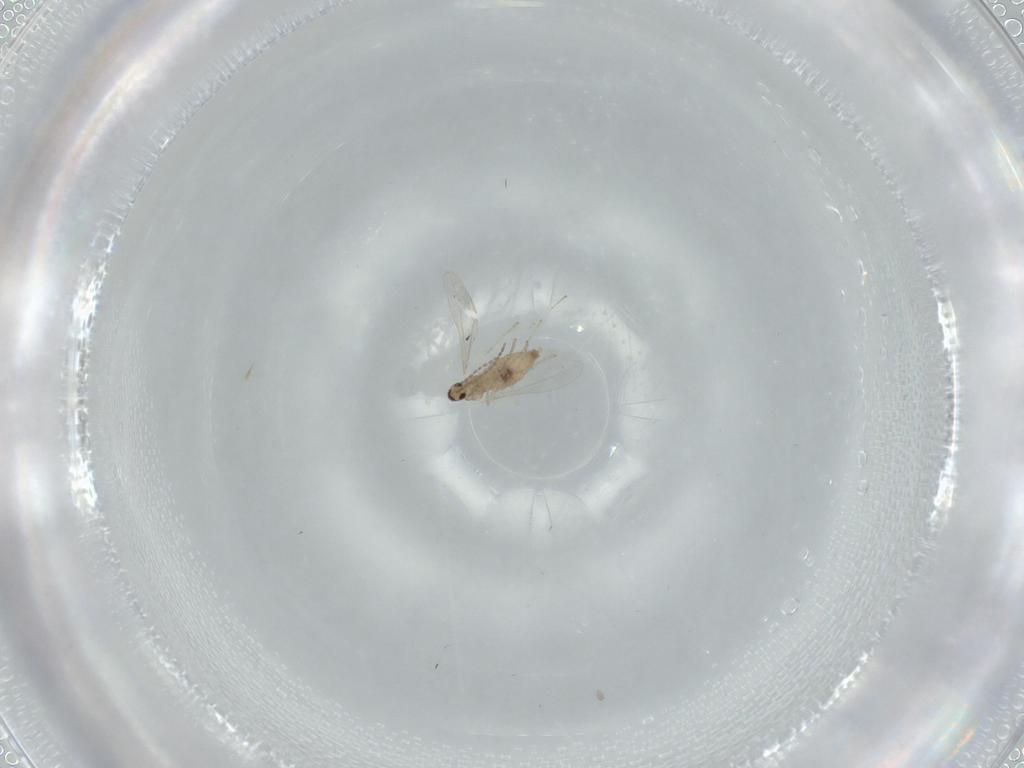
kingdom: Animalia
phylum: Arthropoda
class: Insecta
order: Diptera
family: Cecidomyiidae
